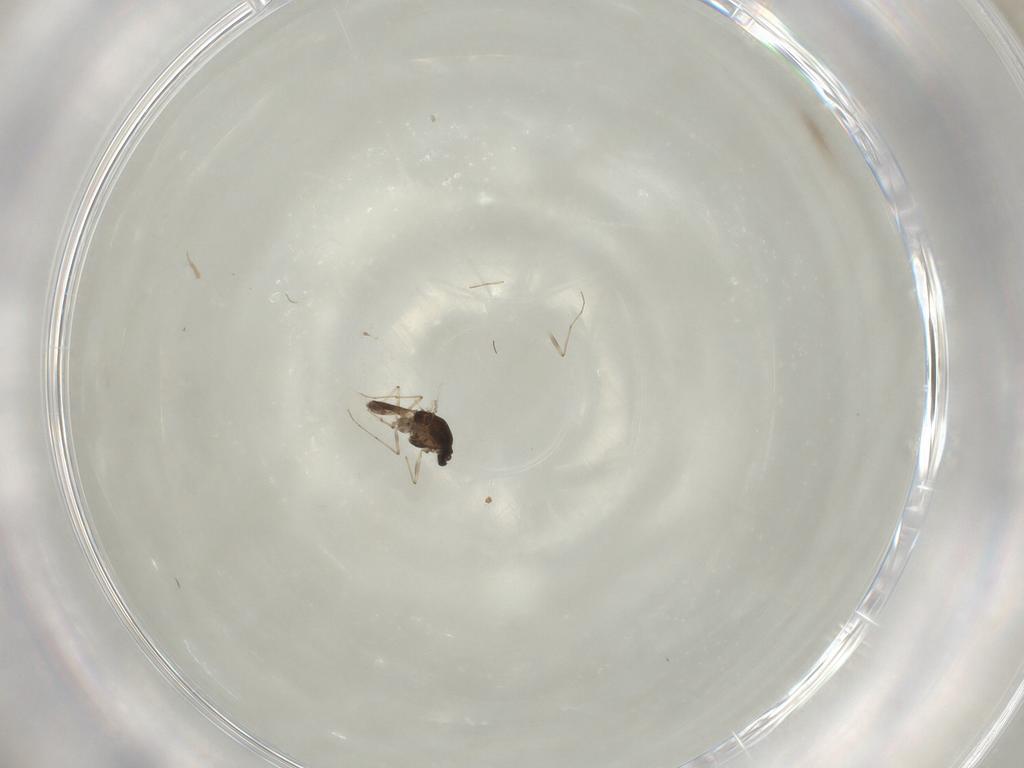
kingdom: Animalia
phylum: Arthropoda
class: Insecta
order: Diptera
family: Chironomidae
